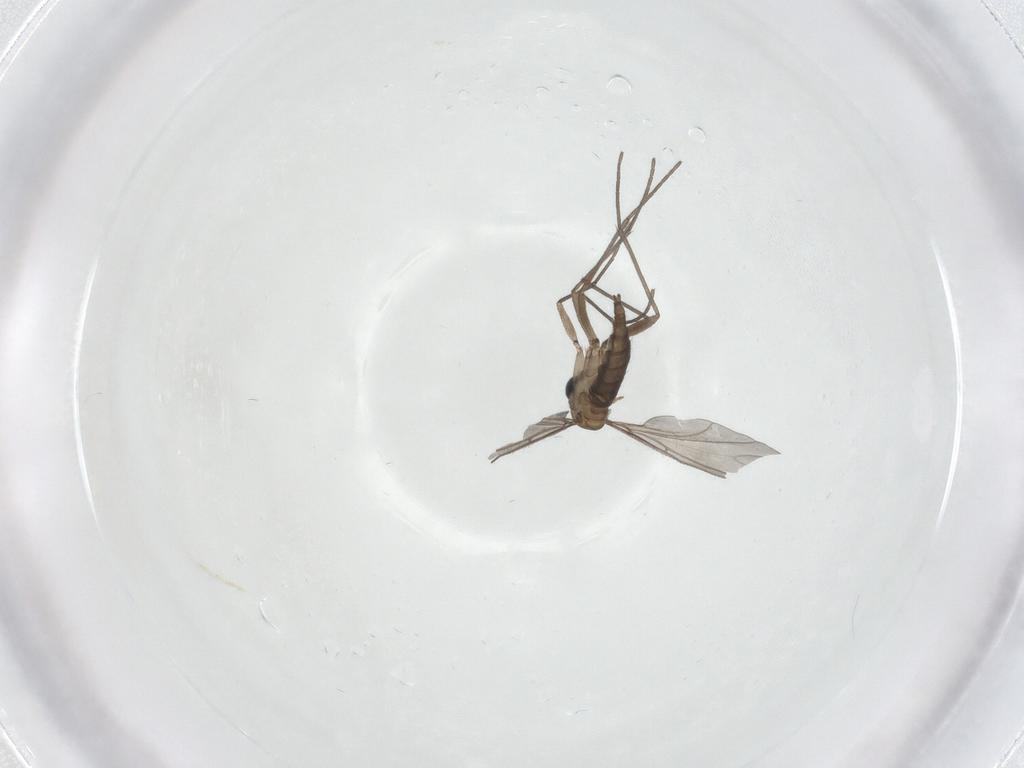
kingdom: Animalia
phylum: Arthropoda
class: Insecta
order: Diptera
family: Sciaridae
